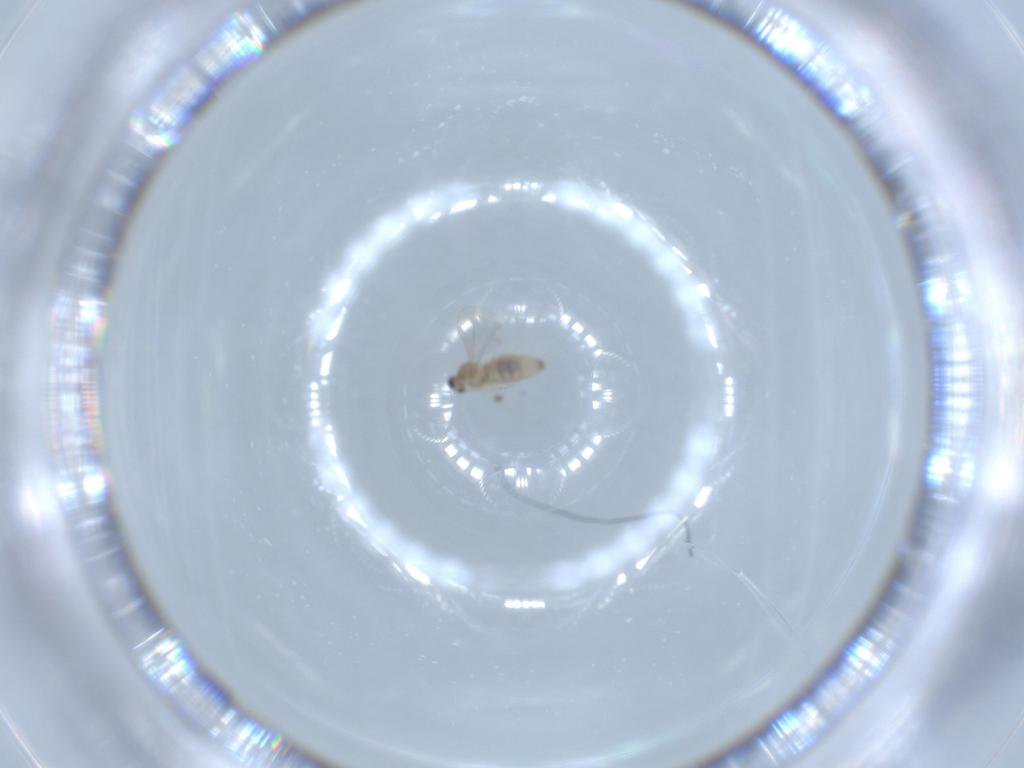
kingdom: Animalia
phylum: Arthropoda
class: Insecta
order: Diptera
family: Cecidomyiidae
